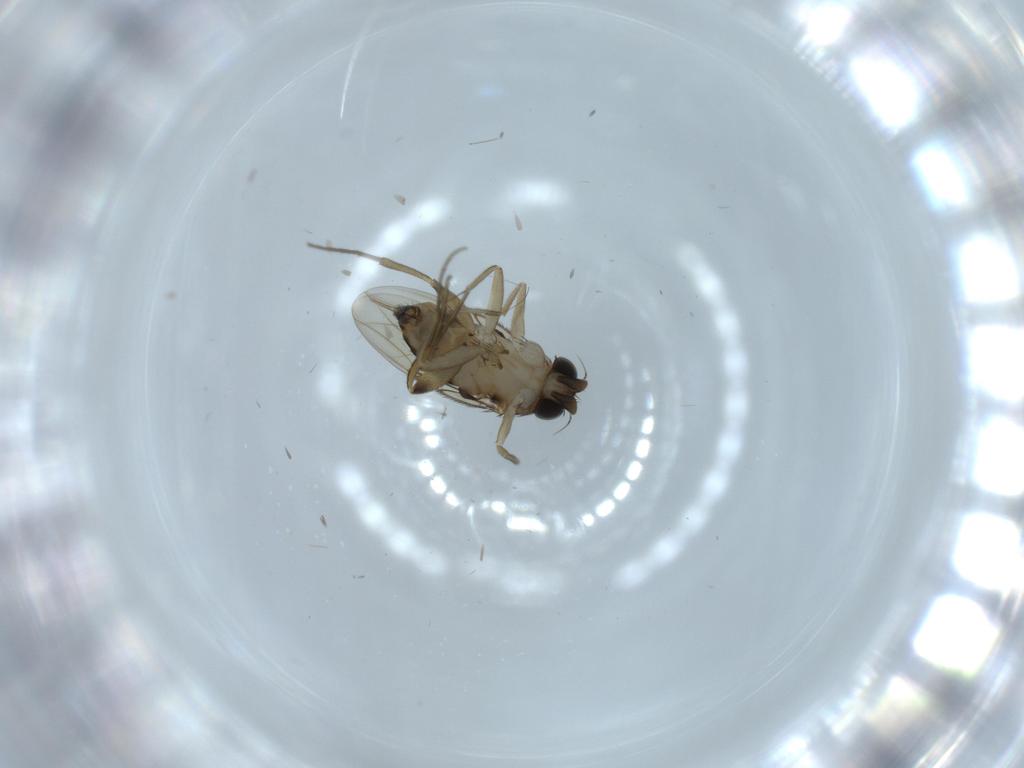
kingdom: Animalia
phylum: Arthropoda
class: Insecta
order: Diptera
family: Phoridae
